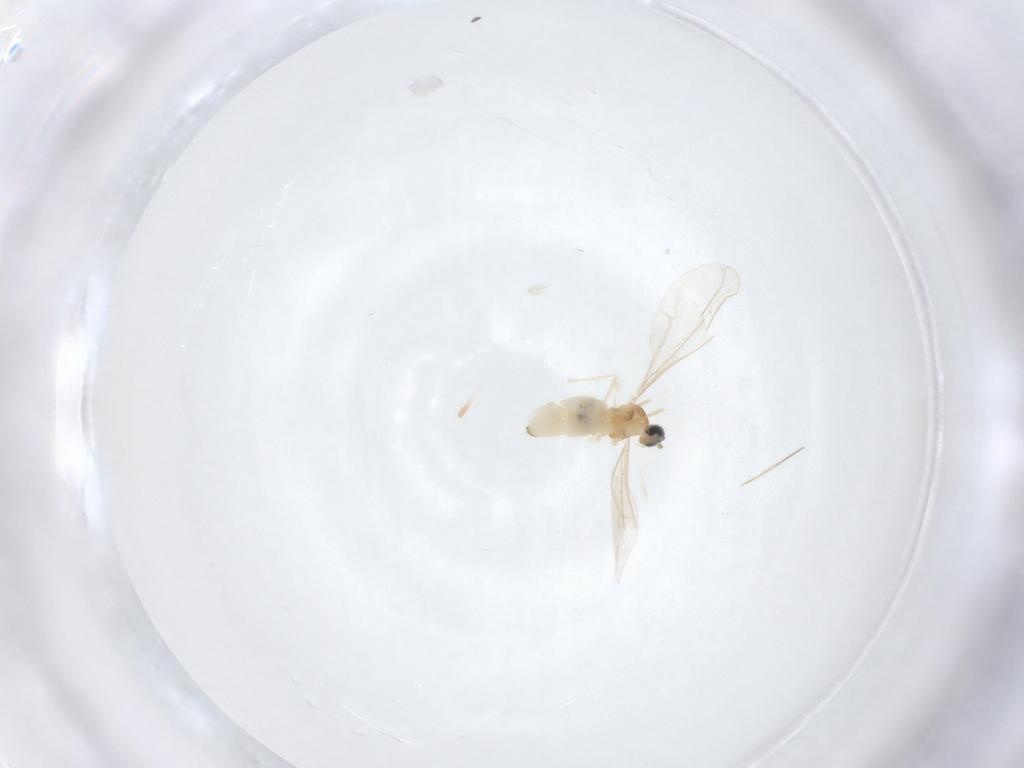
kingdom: Animalia
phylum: Arthropoda
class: Insecta
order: Diptera
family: Cecidomyiidae
